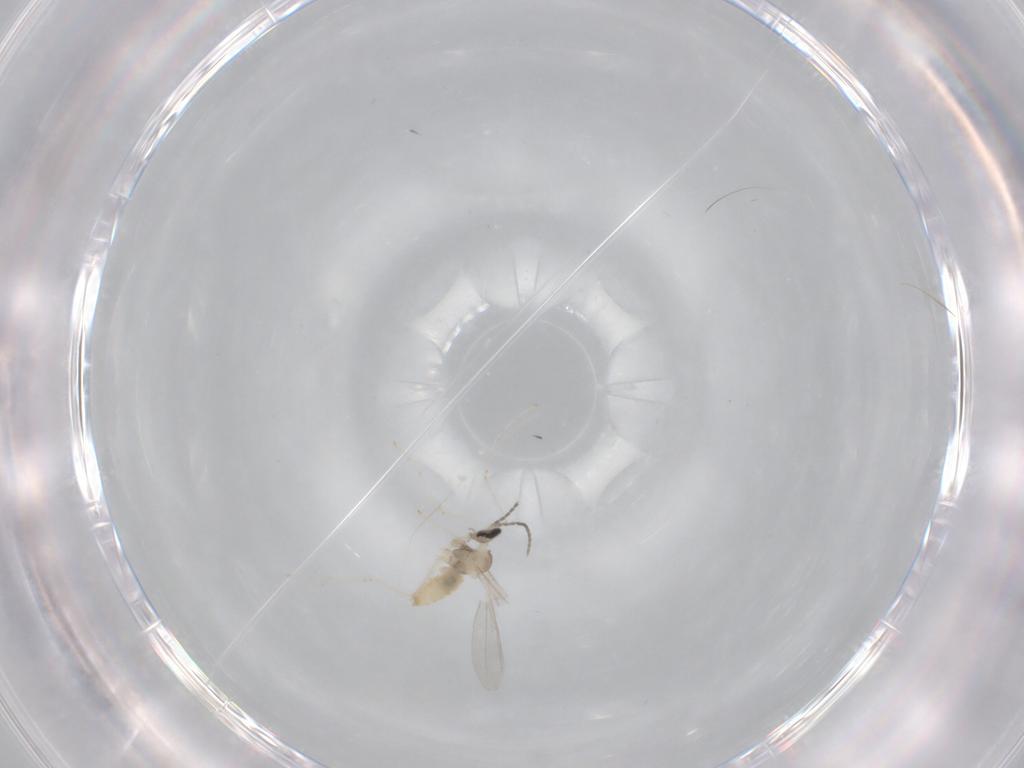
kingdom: Animalia
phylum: Arthropoda
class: Insecta
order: Diptera
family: Cecidomyiidae
